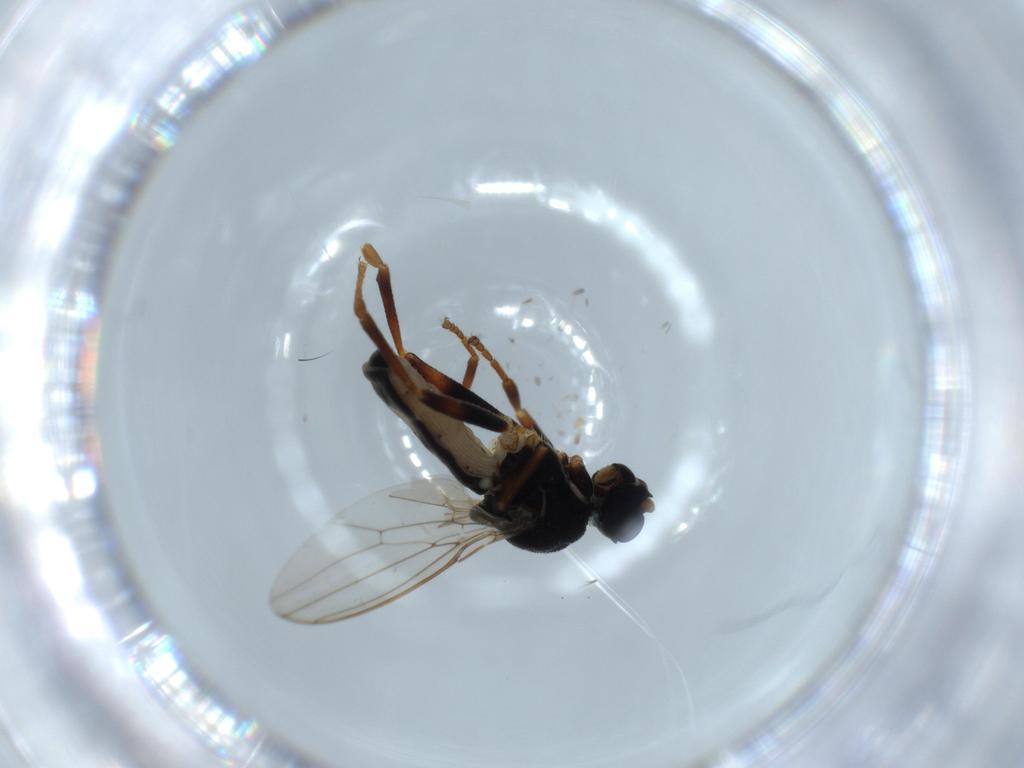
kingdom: Animalia
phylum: Arthropoda
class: Insecta
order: Diptera
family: Sphaeroceridae
